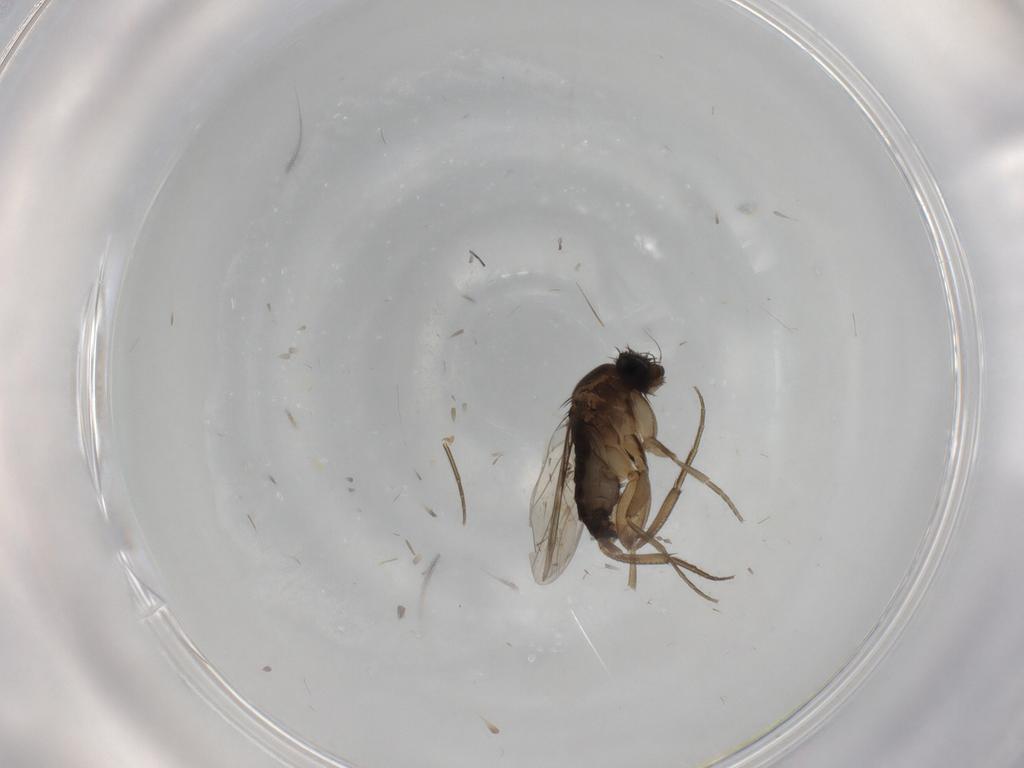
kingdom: Animalia
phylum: Arthropoda
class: Insecta
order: Diptera
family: Cecidomyiidae
